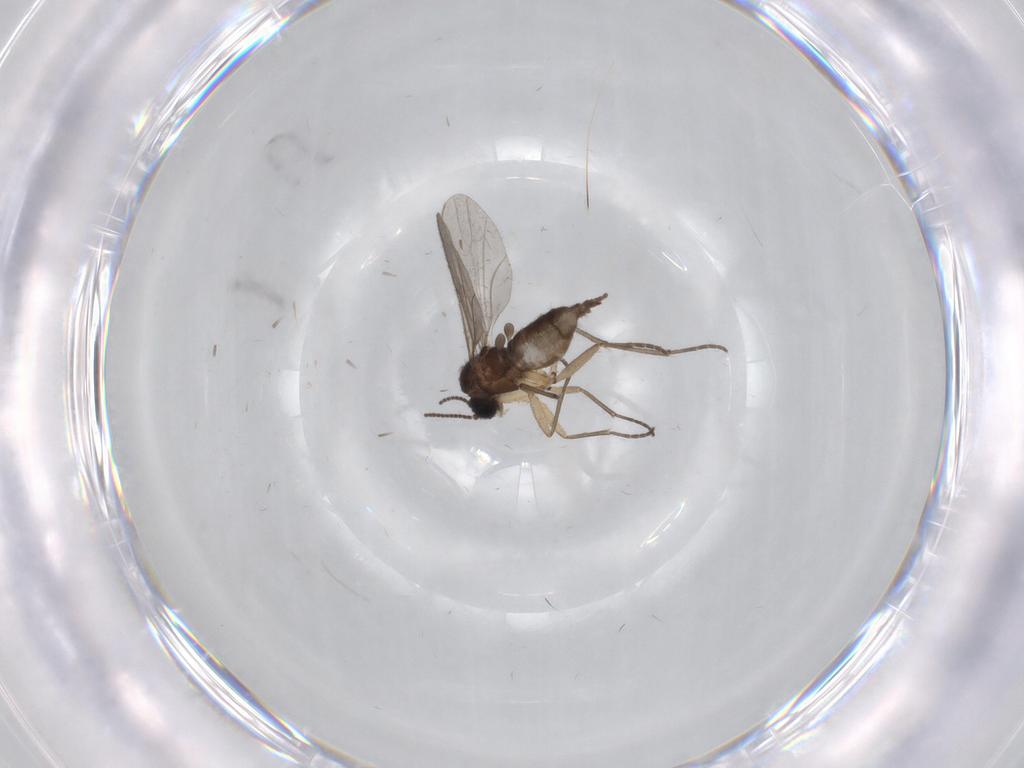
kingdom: Animalia
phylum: Arthropoda
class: Insecta
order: Diptera
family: Sciaridae
